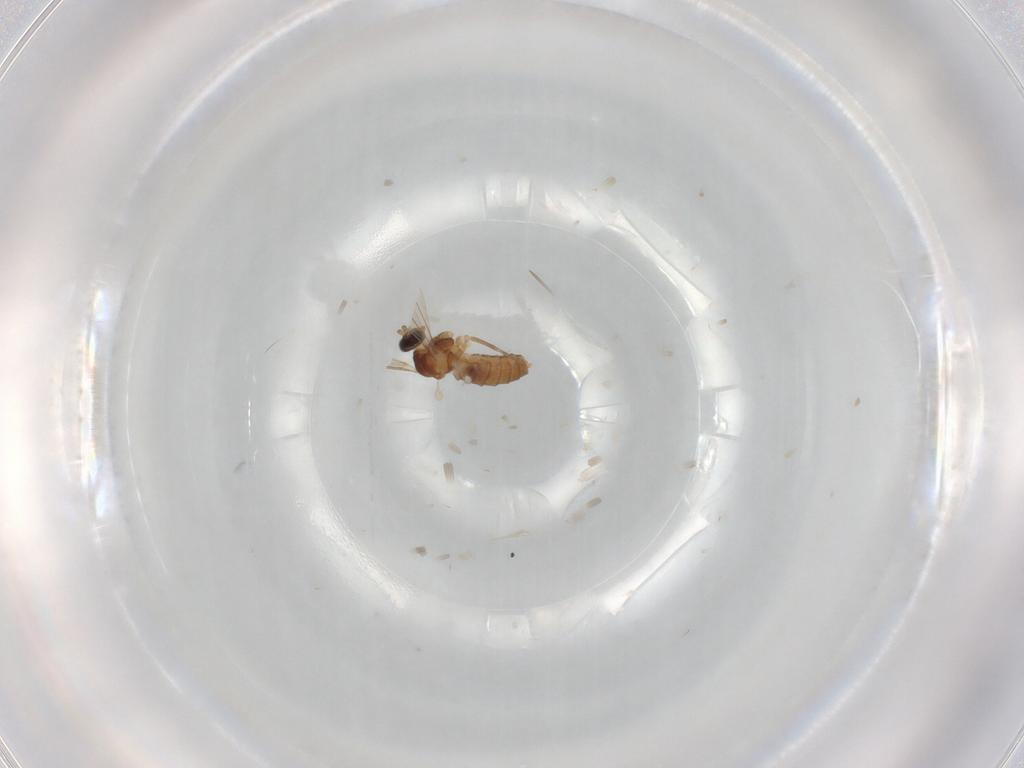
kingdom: Animalia
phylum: Arthropoda
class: Insecta
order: Diptera
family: Cecidomyiidae
